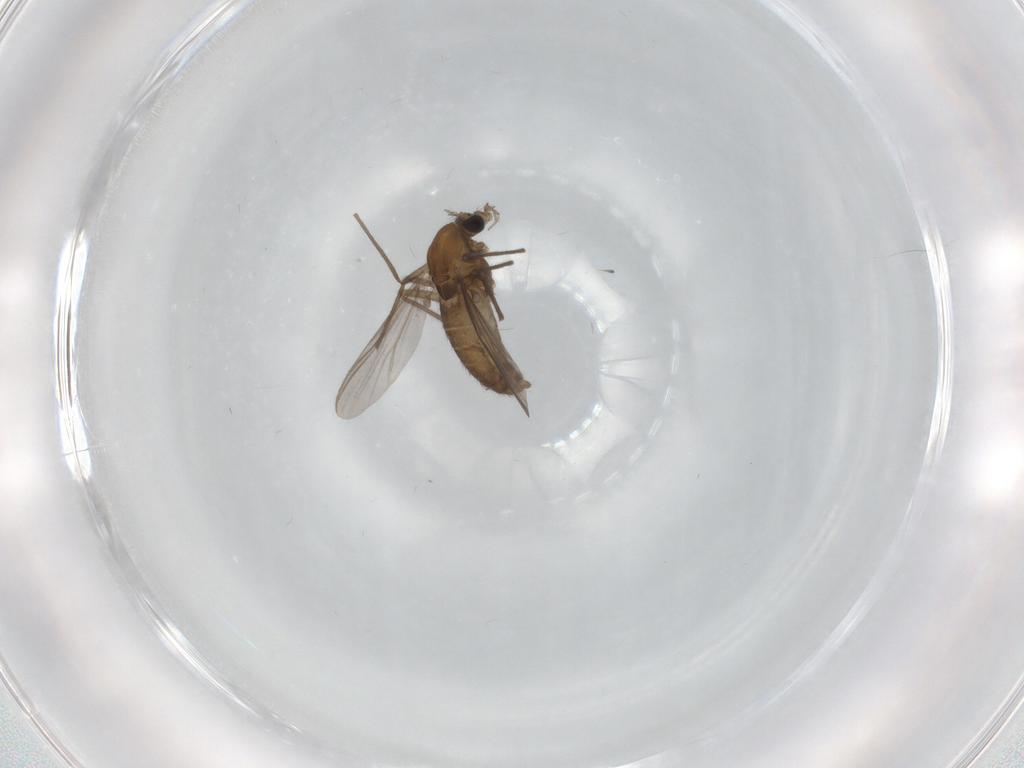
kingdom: Animalia
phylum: Arthropoda
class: Insecta
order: Diptera
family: Chironomidae
